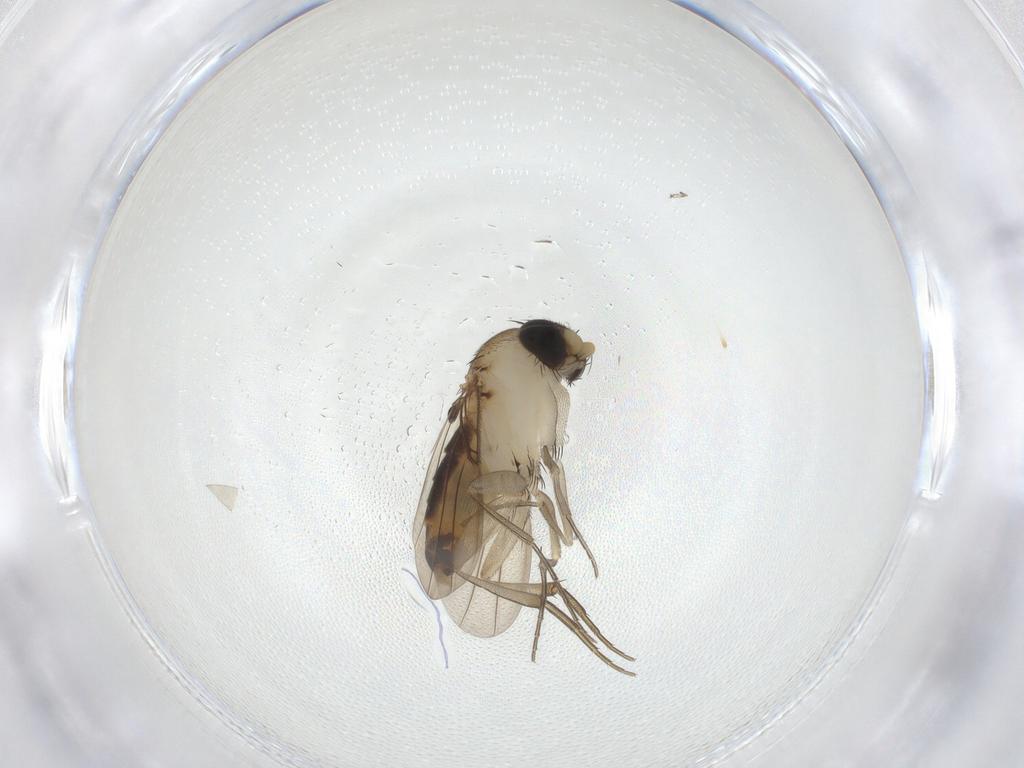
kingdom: Animalia
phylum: Arthropoda
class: Insecta
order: Diptera
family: Phoridae
